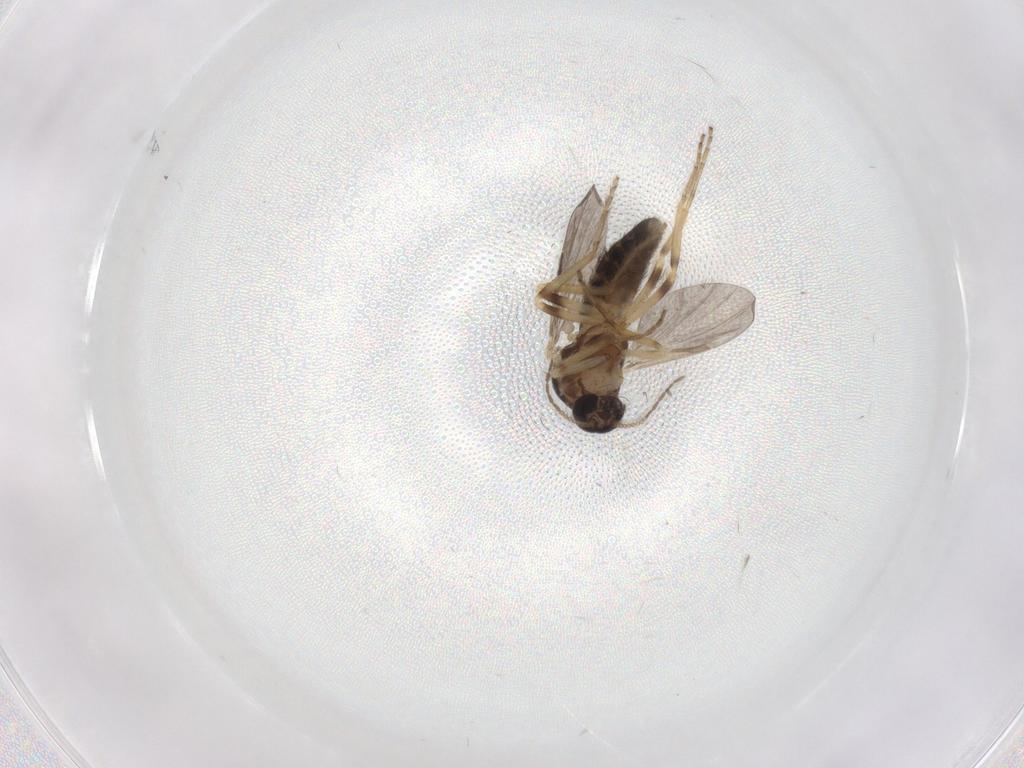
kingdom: Animalia
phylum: Arthropoda
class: Insecta
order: Diptera
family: Ceratopogonidae
